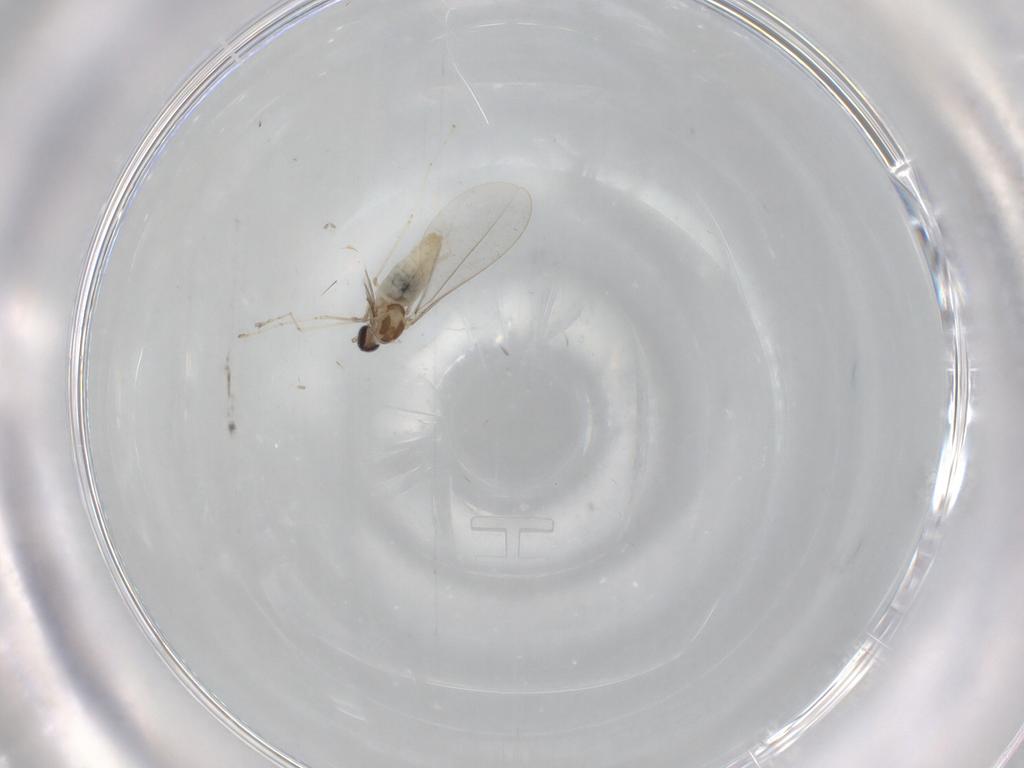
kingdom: Animalia
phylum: Arthropoda
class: Insecta
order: Diptera
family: Cecidomyiidae
